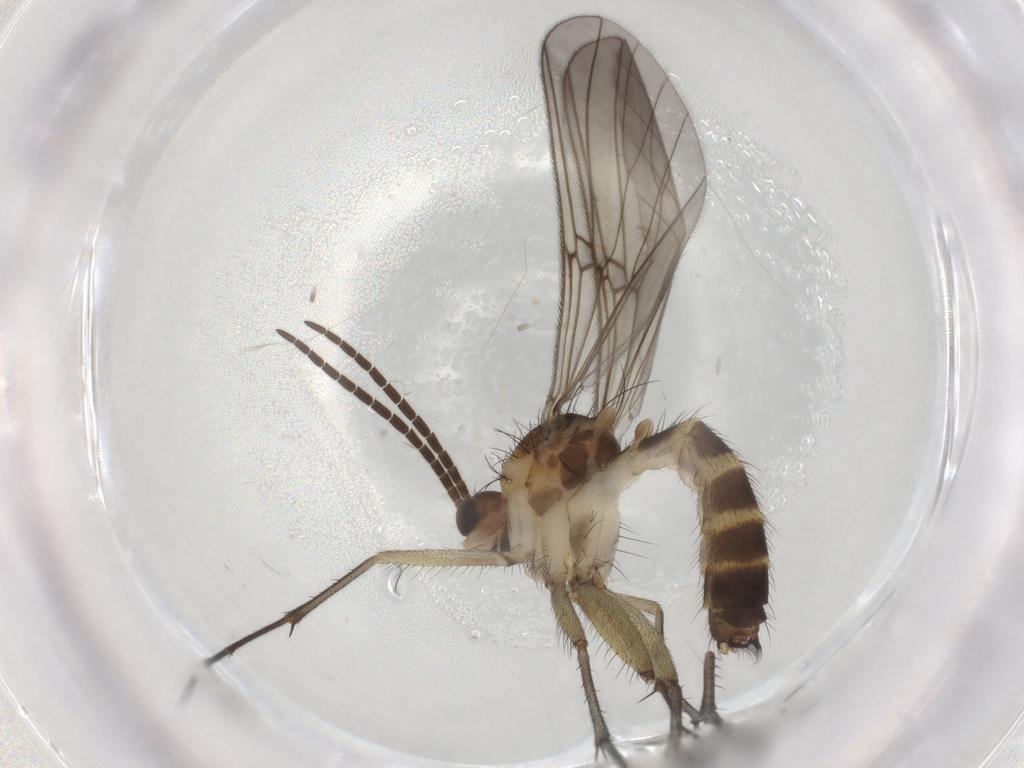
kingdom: Animalia
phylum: Arthropoda
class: Insecta
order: Diptera
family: Mycetophilidae
